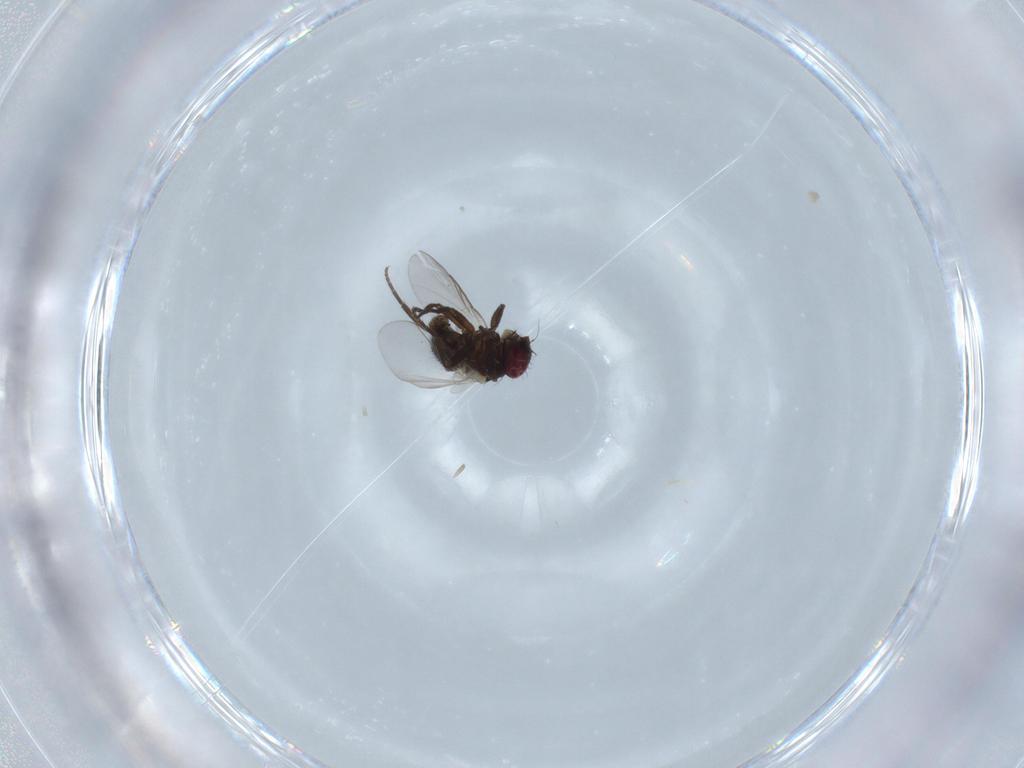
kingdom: Animalia
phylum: Arthropoda
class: Insecta
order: Diptera
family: Agromyzidae
